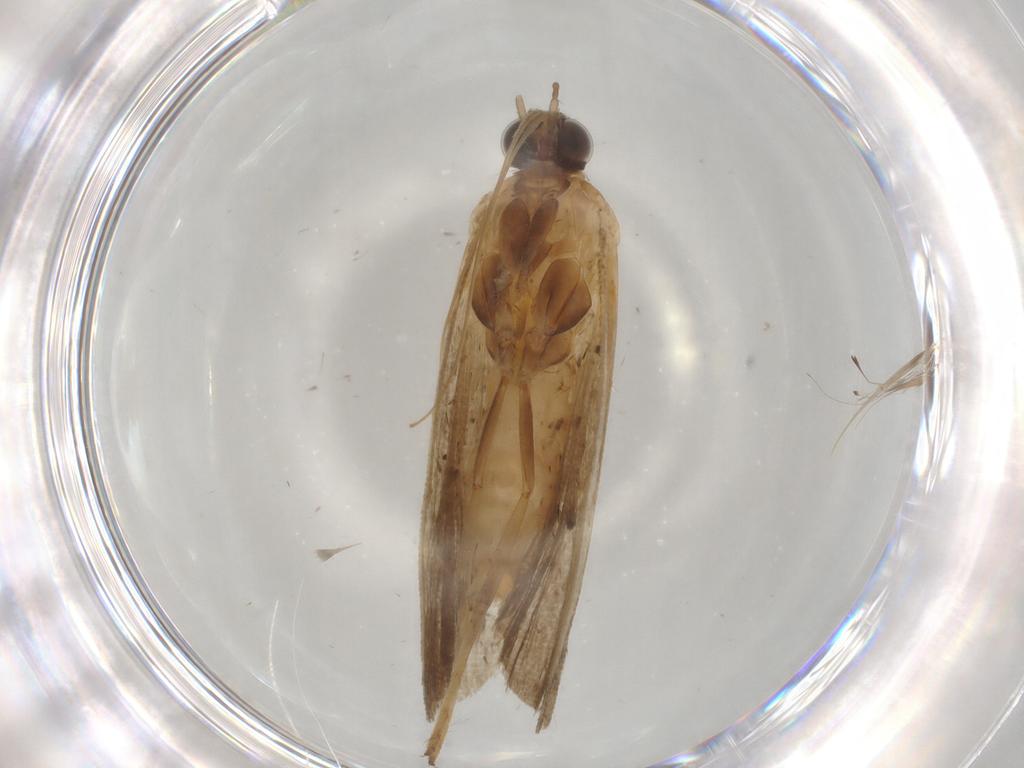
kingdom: Animalia
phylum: Arthropoda
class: Insecta
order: Lepidoptera
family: Noctuidae
